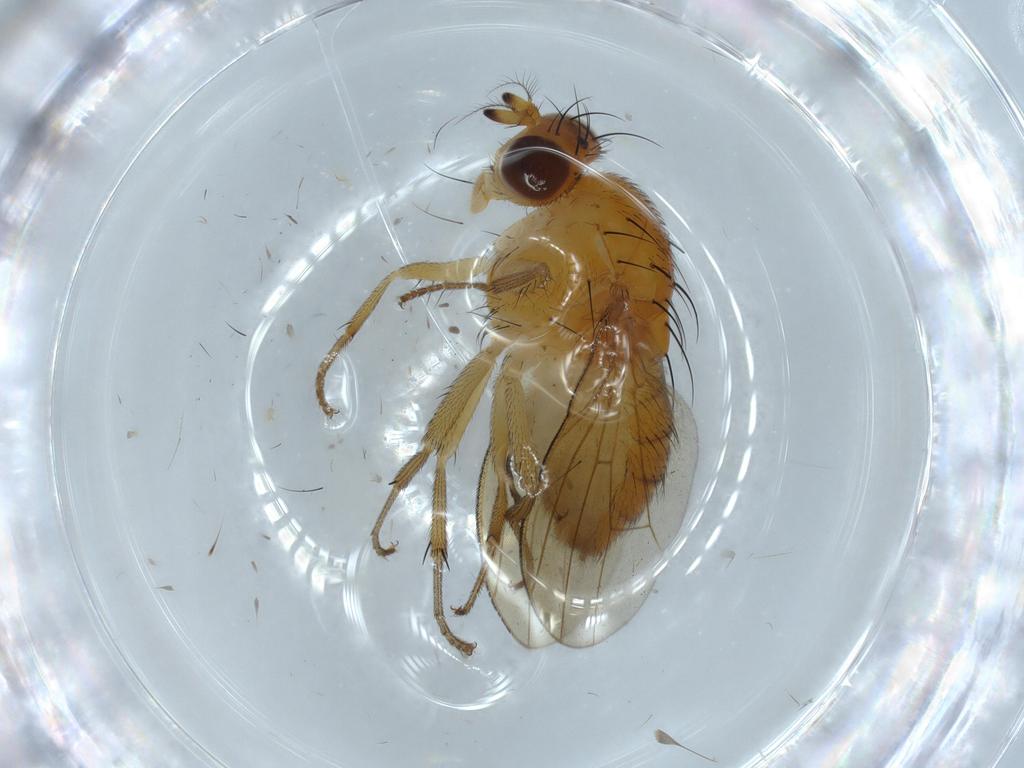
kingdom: Animalia
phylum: Arthropoda
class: Insecta
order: Diptera
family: Lauxaniidae
